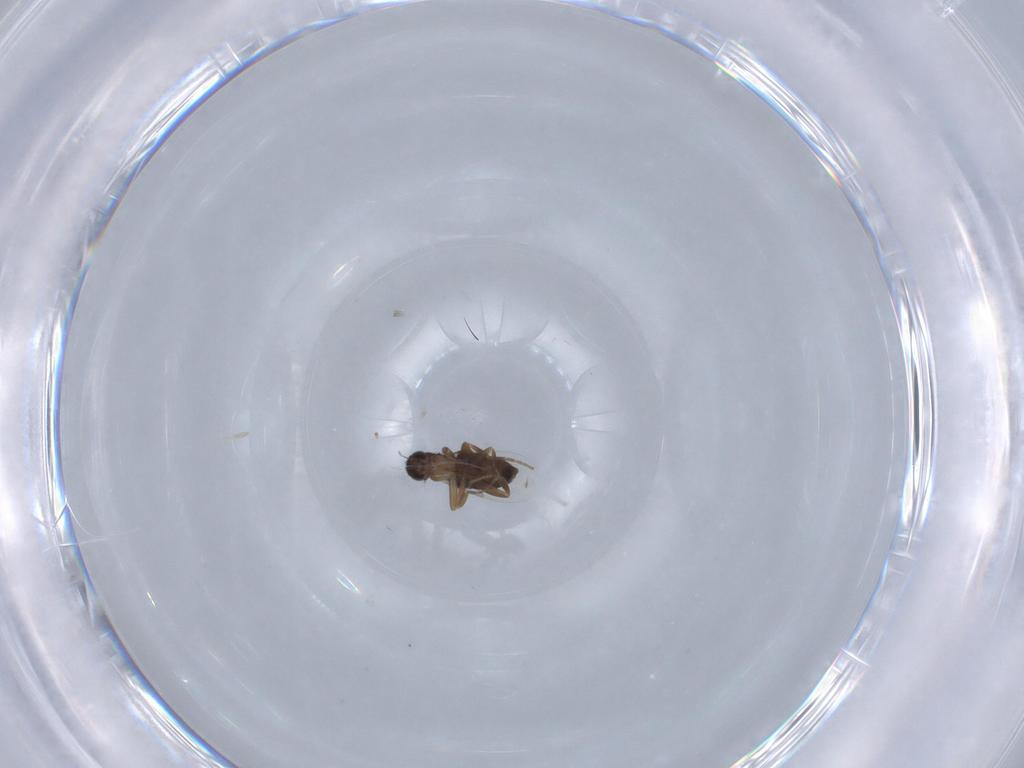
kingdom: Animalia
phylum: Arthropoda
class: Insecta
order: Diptera
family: Phoridae
